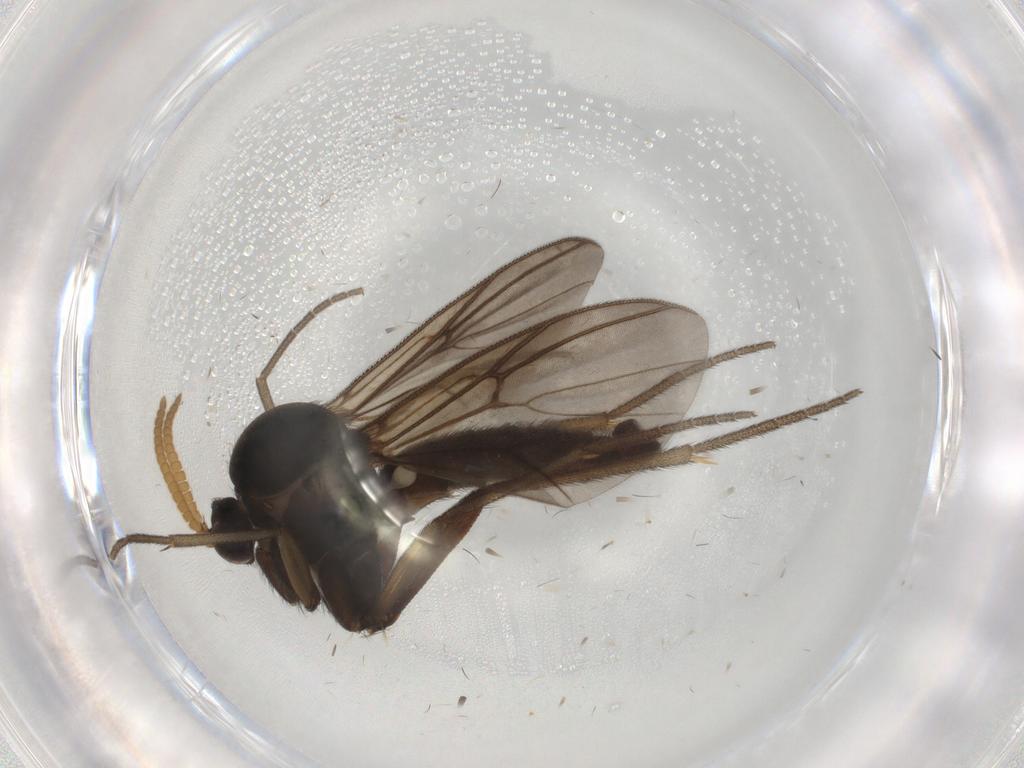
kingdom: Animalia
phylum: Arthropoda
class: Insecta
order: Diptera
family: Mycetophilidae
